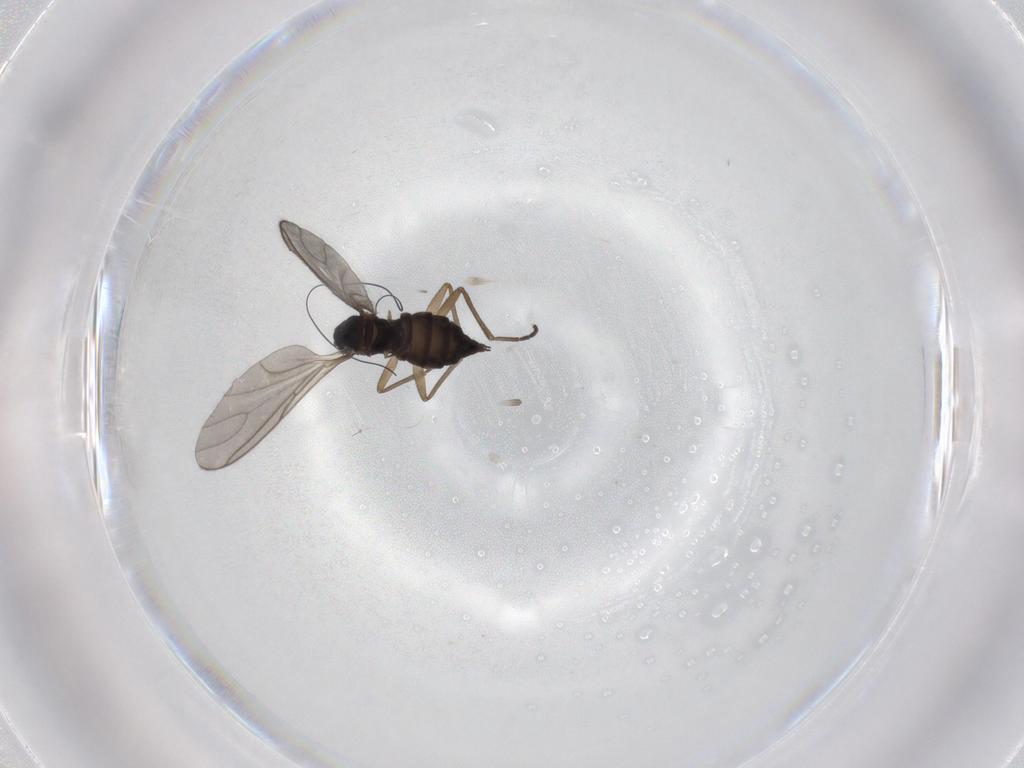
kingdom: Animalia
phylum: Arthropoda
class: Insecta
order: Diptera
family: Sciaridae
